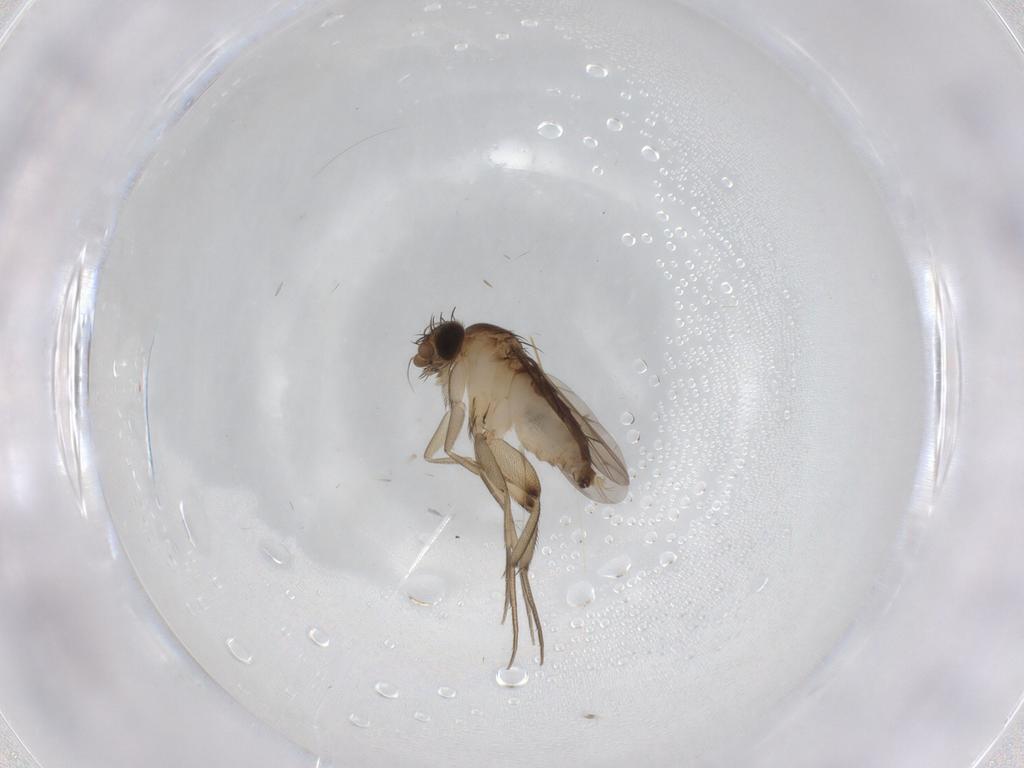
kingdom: Animalia
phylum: Arthropoda
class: Insecta
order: Diptera
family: Phoridae
